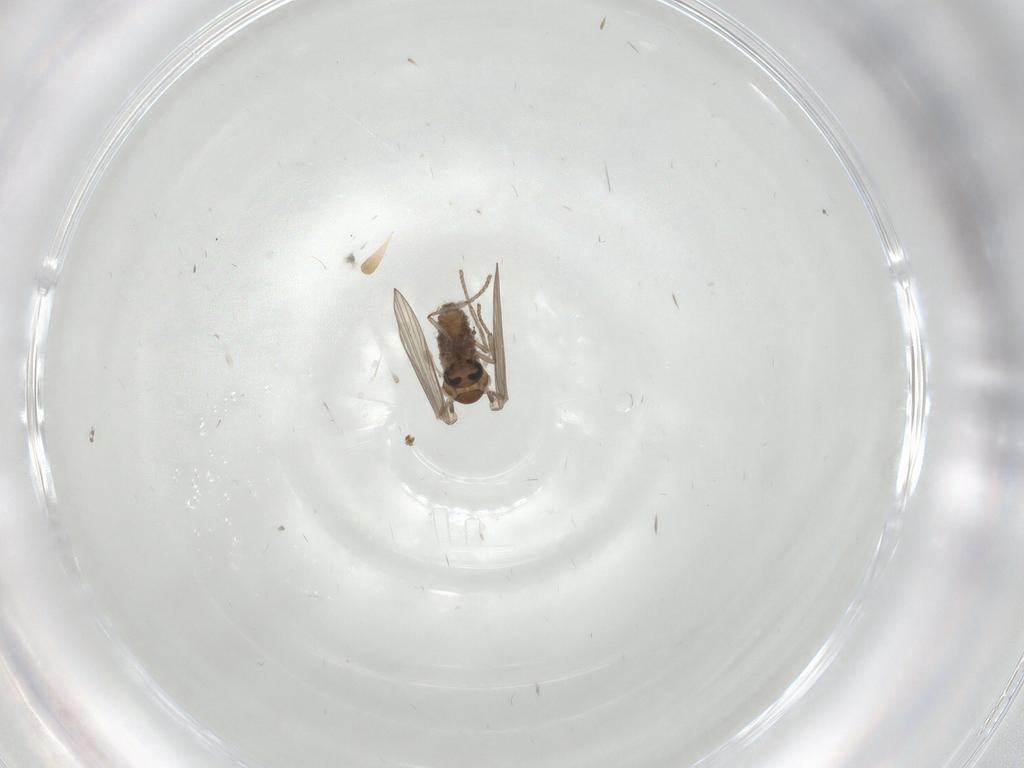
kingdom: Animalia
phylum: Arthropoda
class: Insecta
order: Diptera
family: Psychodidae
